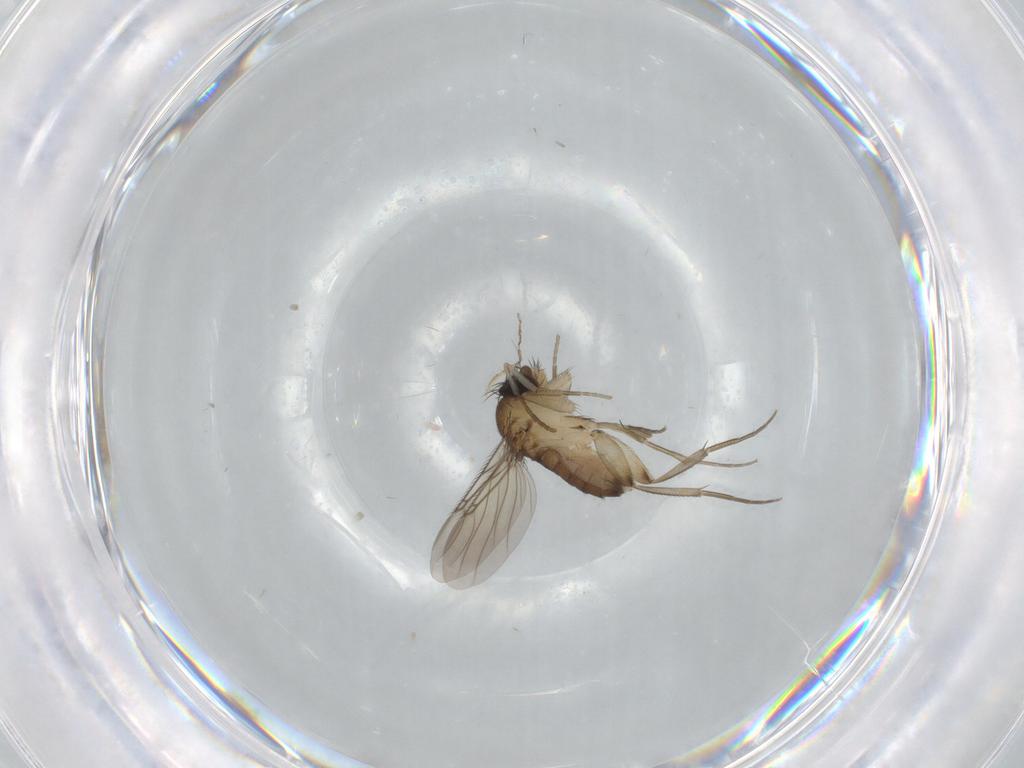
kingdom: Animalia
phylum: Arthropoda
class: Insecta
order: Diptera
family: Phoridae
